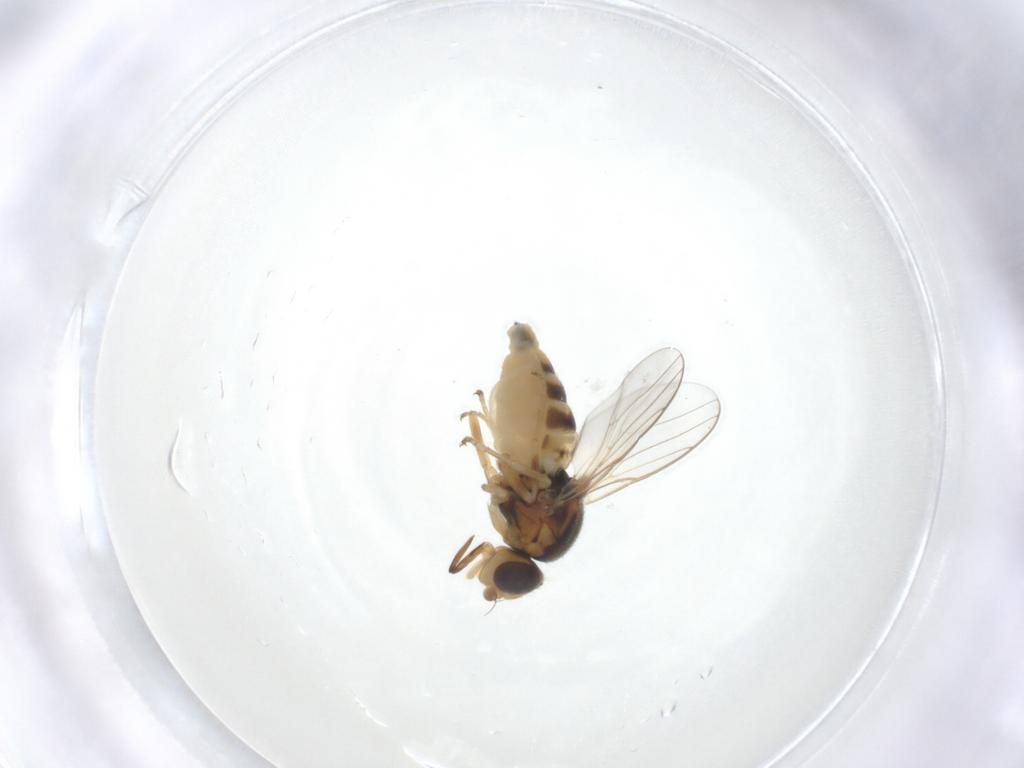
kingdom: Animalia
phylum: Arthropoda
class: Insecta
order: Diptera
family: Chloropidae
